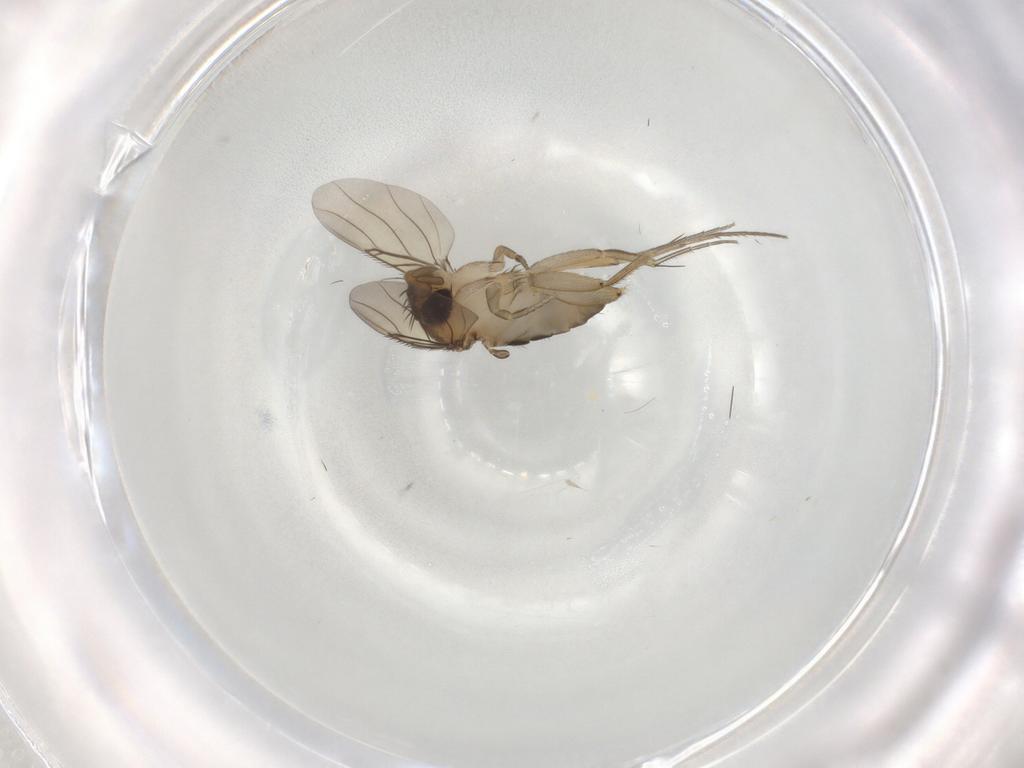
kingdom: Animalia
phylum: Arthropoda
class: Insecta
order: Diptera
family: Phoridae
